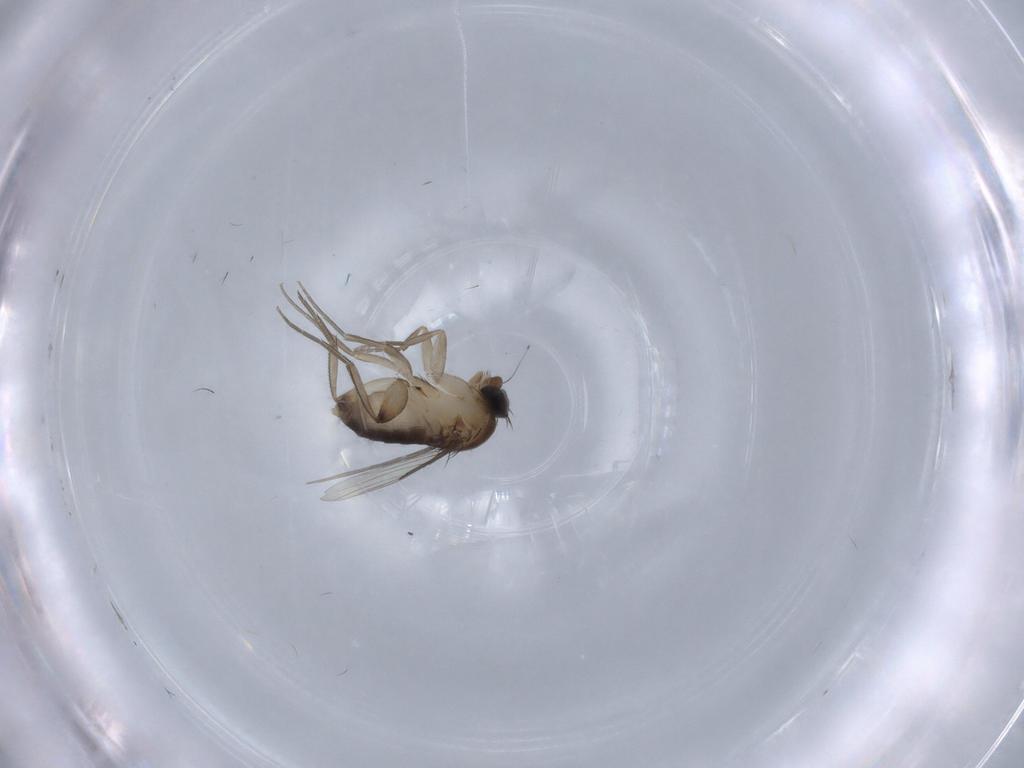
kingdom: Animalia
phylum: Arthropoda
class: Insecta
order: Diptera
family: Phoridae
